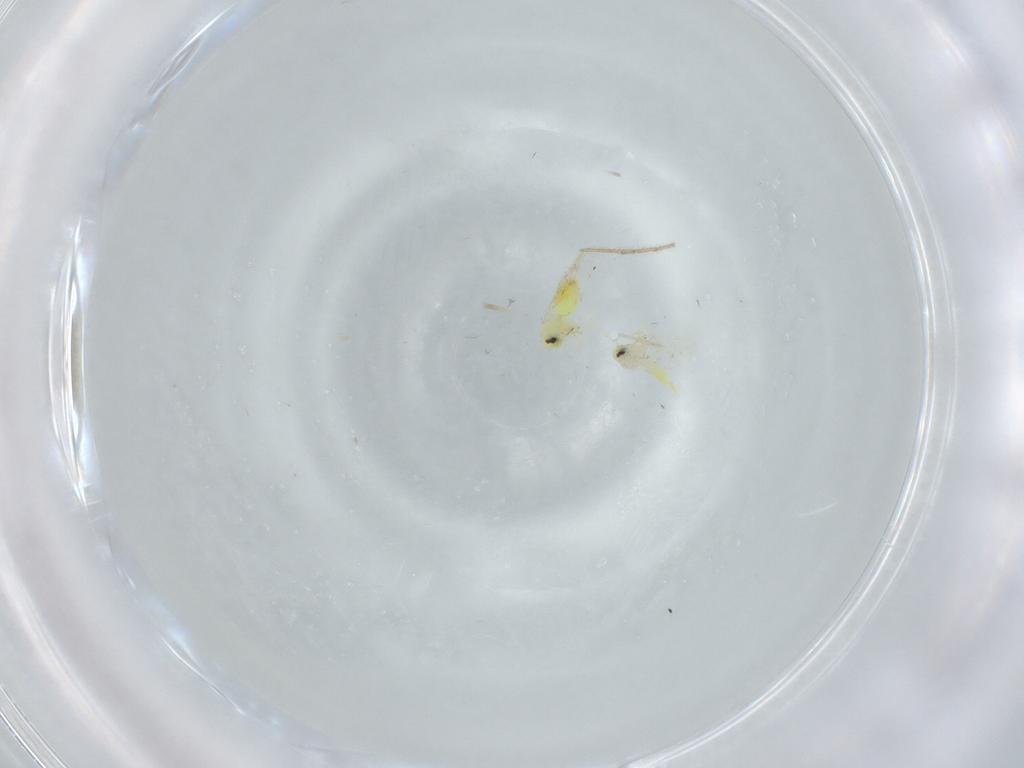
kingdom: Animalia
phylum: Arthropoda
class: Insecta
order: Hemiptera
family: Aleyrodidae
